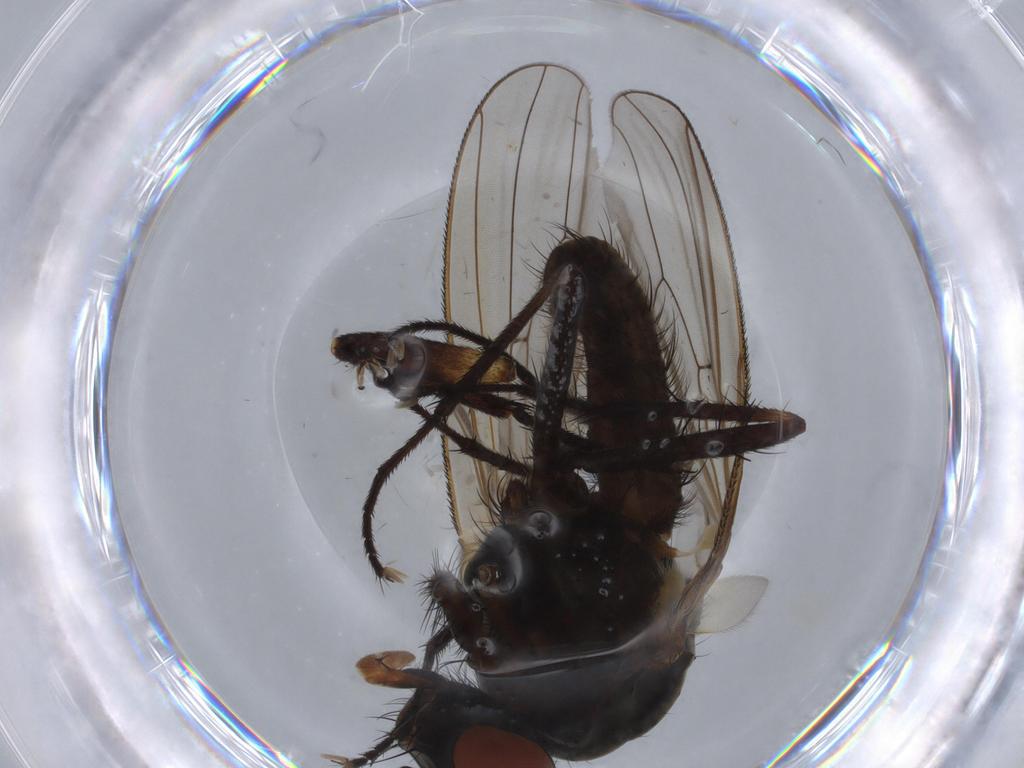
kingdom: Animalia
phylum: Arthropoda
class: Insecta
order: Diptera
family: Anthomyiidae
